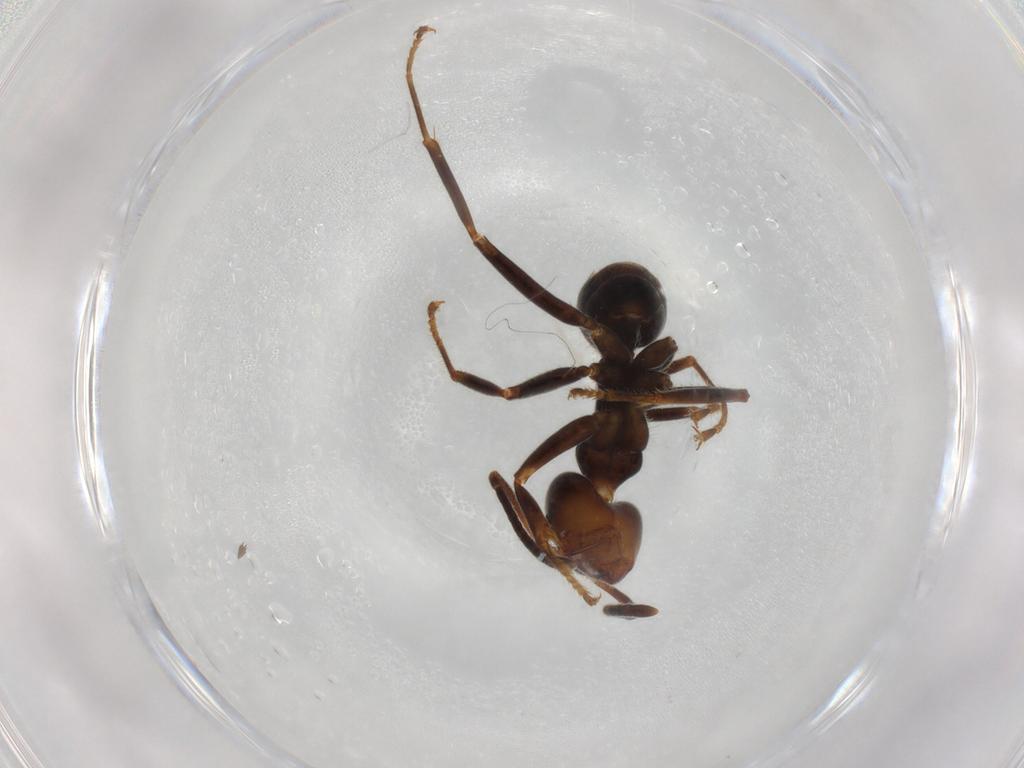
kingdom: Animalia
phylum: Arthropoda
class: Insecta
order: Hymenoptera
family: Formicidae
